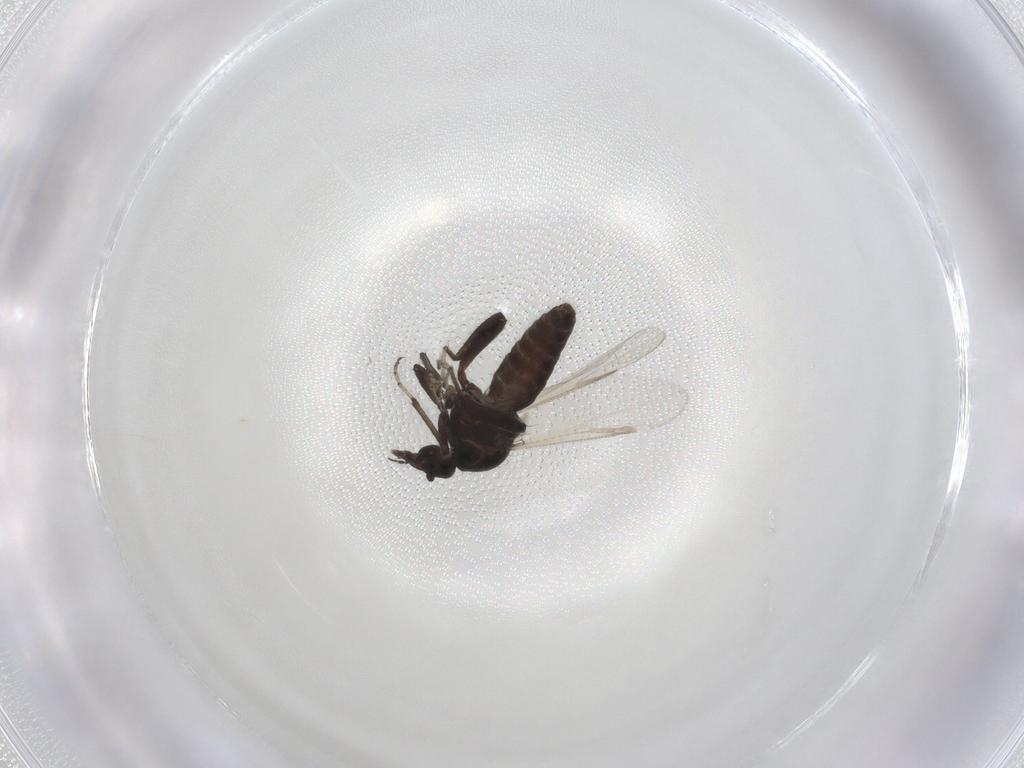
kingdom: Animalia
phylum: Arthropoda
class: Insecta
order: Diptera
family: Ceratopogonidae
